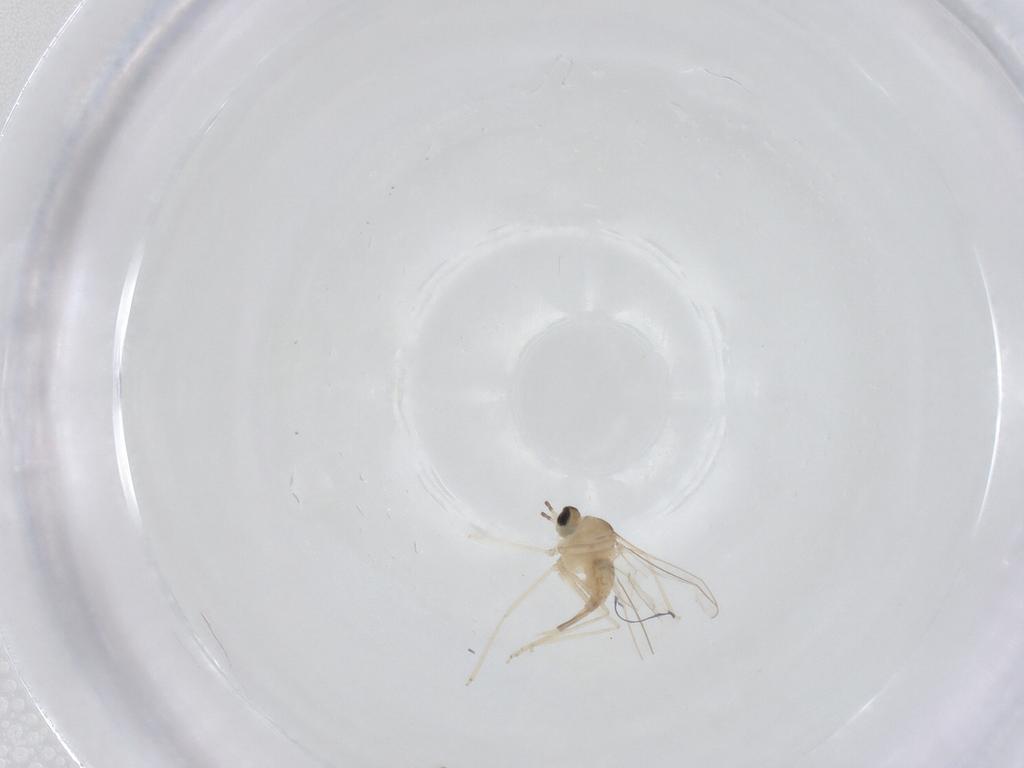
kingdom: Animalia
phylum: Arthropoda
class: Insecta
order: Diptera
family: Cecidomyiidae
